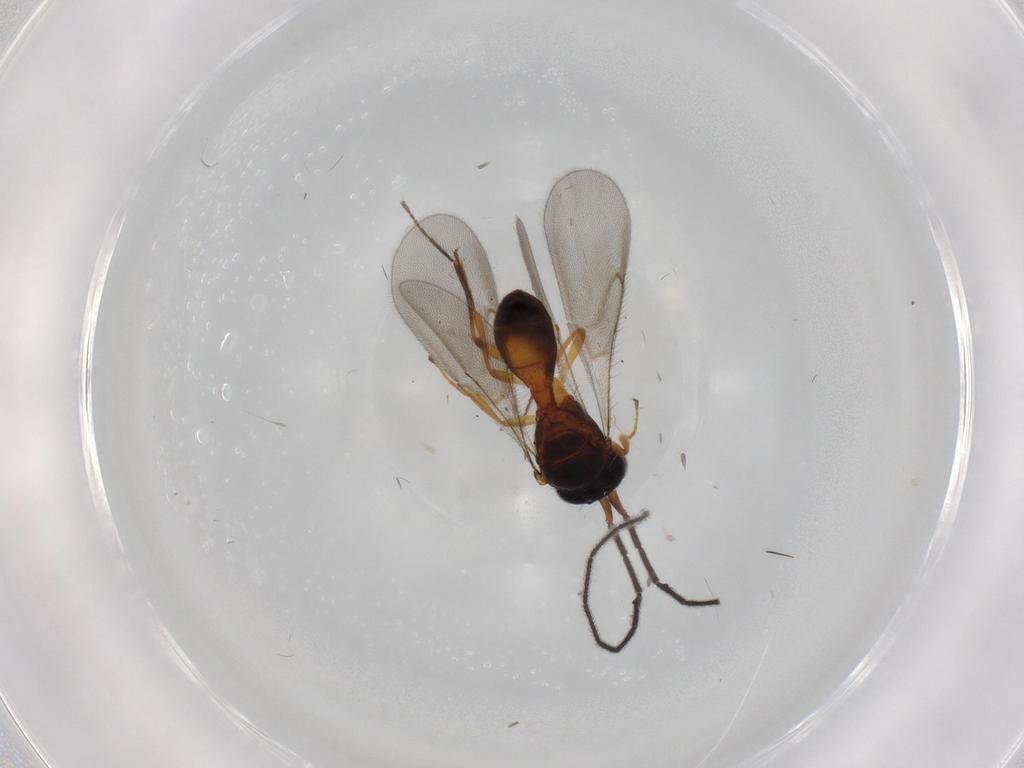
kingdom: Animalia
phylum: Arthropoda
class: Insecta
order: Hymenoptera
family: Scelionidae
